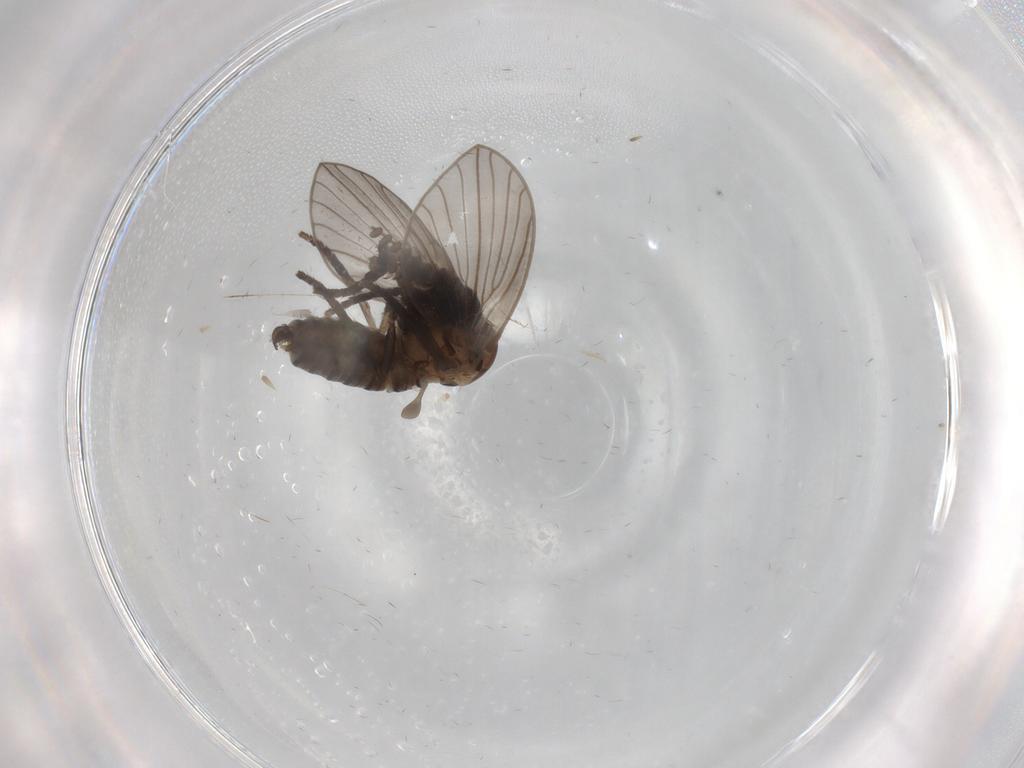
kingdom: Animalia
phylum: Arthropoda
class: Insecta
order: Diptera
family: Psychodidae
